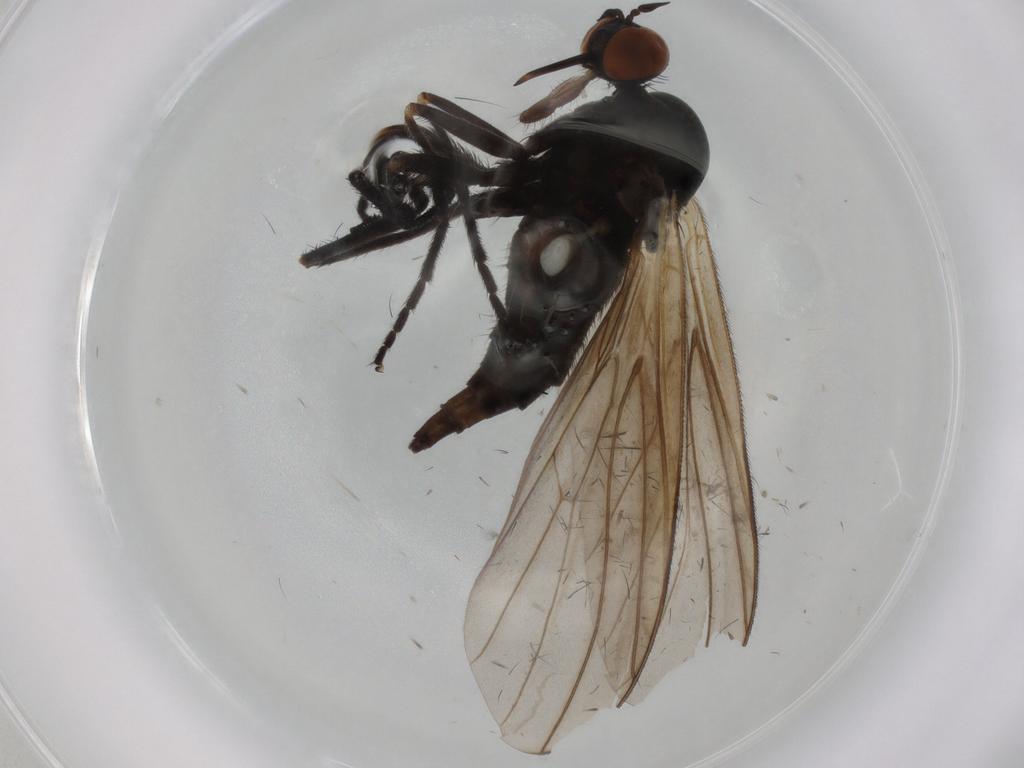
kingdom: Animalia
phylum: Arthropoda
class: Insecta
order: Diptera
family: Empididae
